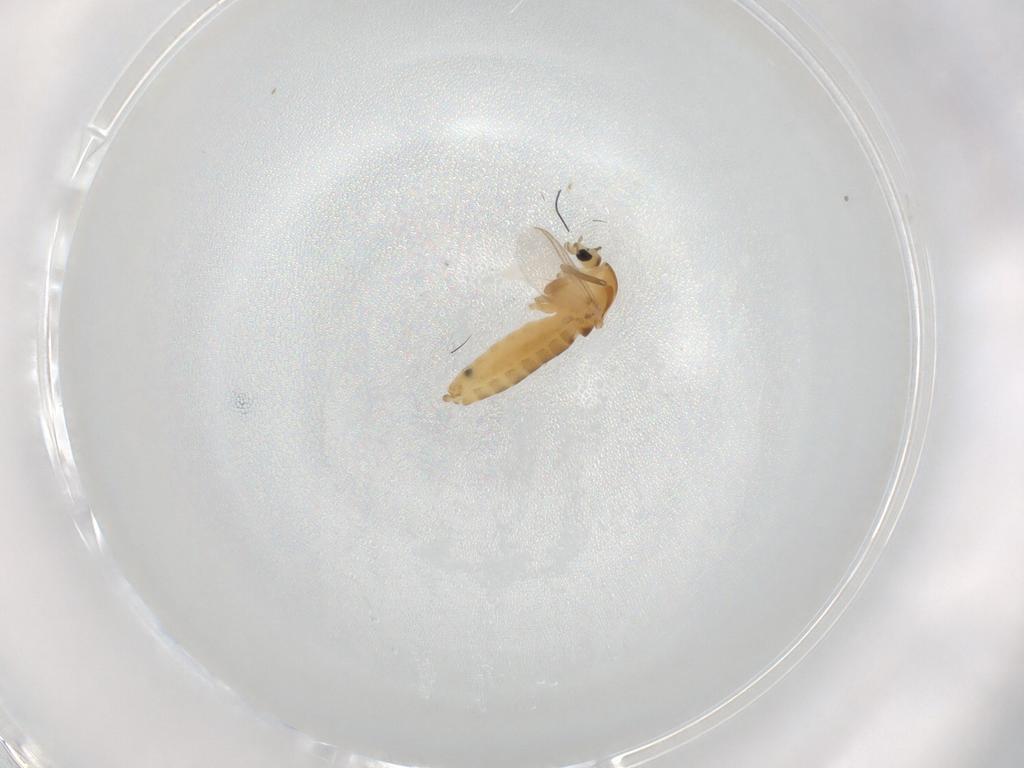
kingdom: Animalia
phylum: Arthropoda
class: Insecta
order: Diptera
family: Chironomidae
